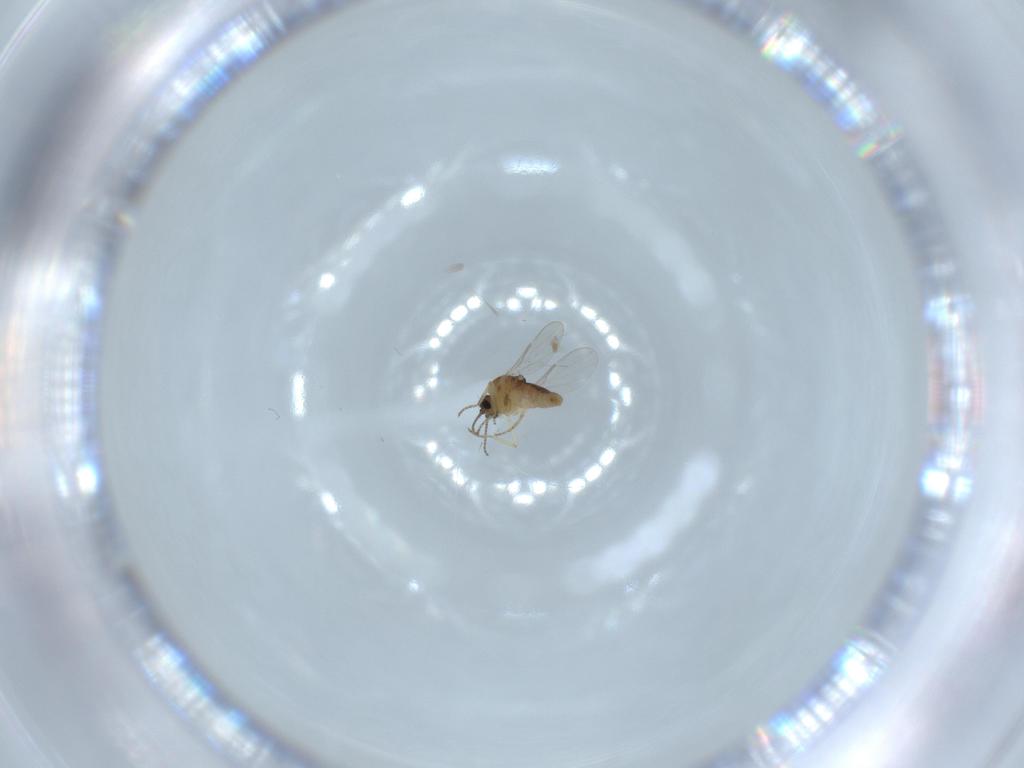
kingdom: Animalia
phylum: Arthropoda
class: Insecta
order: Diptera
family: Ceratopogonidae
